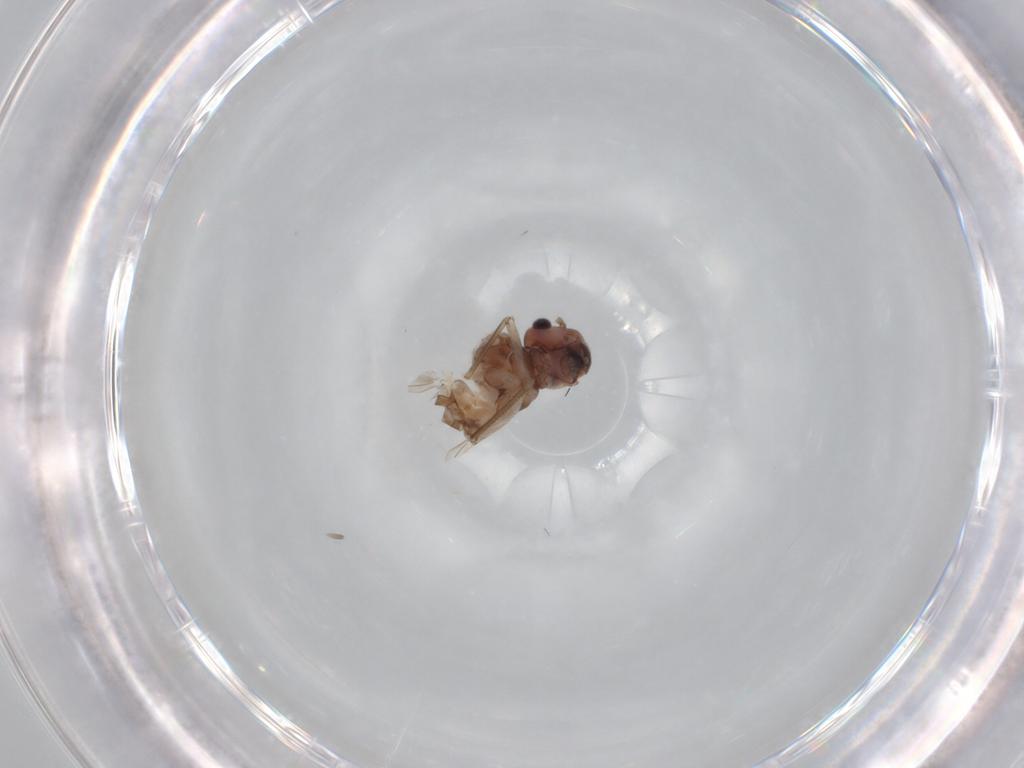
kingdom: Animalia
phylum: Arthropoda
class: Insecta
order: Psocodea
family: Peripsocidae
